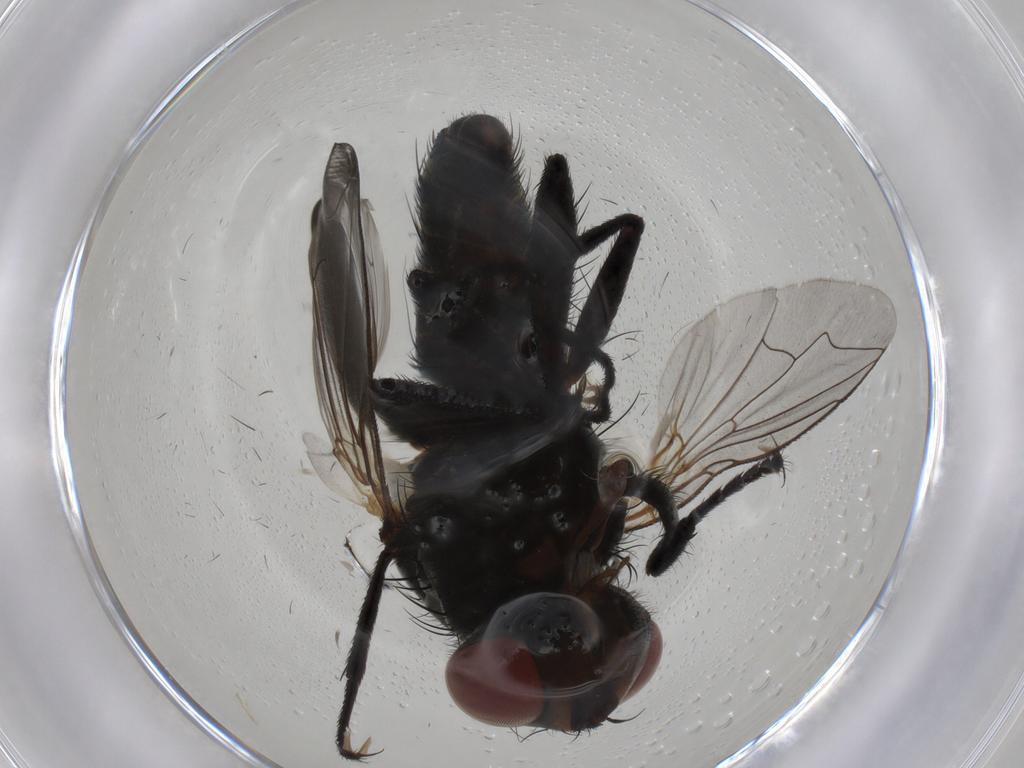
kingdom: Animalia
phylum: Arthropoda
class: Insecta
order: Diptera
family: Sarcophagidae
